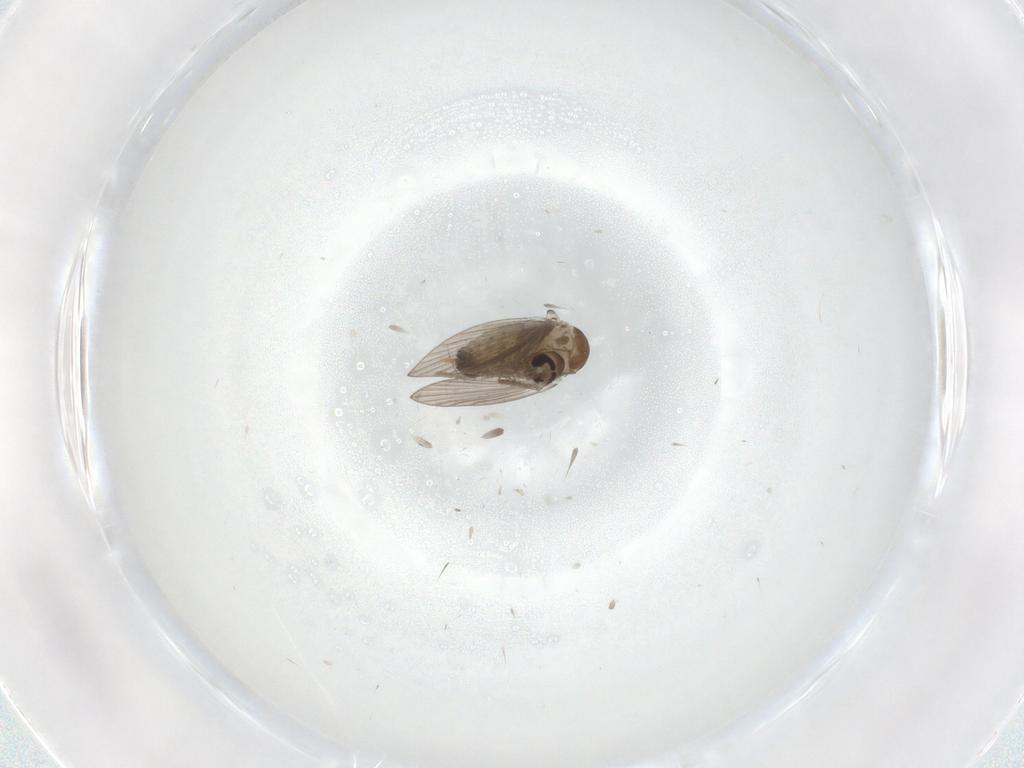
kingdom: Animalia
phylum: Arthropoda
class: Insecta
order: Diptera
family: Psychodidae
